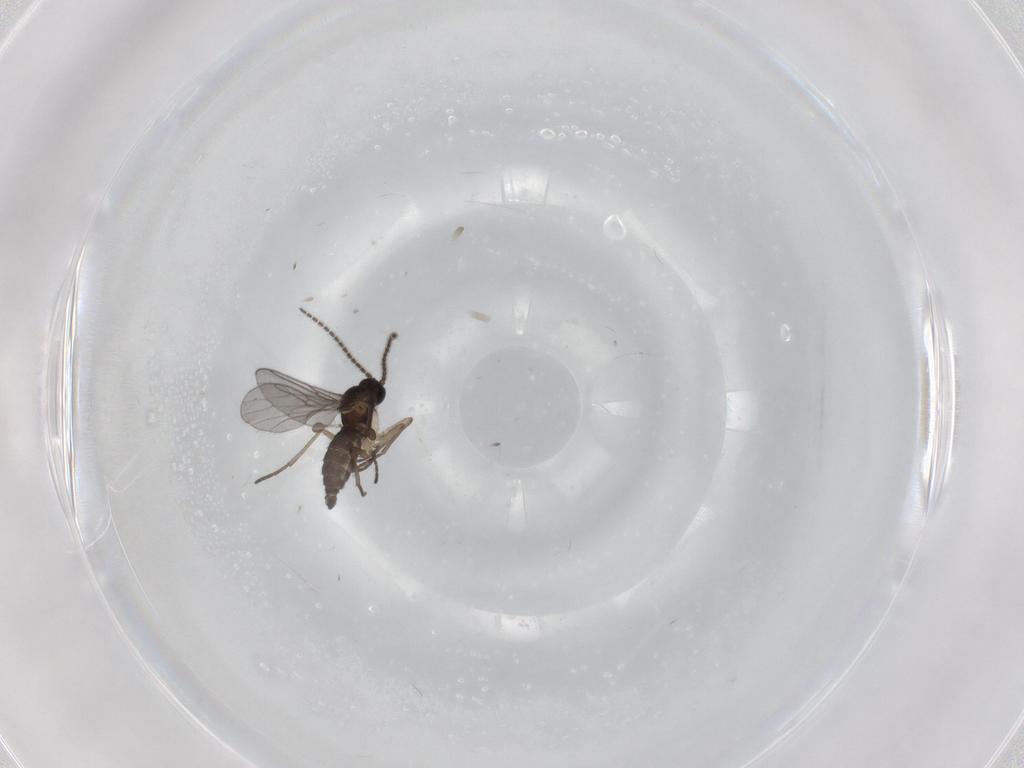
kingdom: Animalia
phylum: Arthropoda
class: Insecta
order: Diptera
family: Sciaridae
